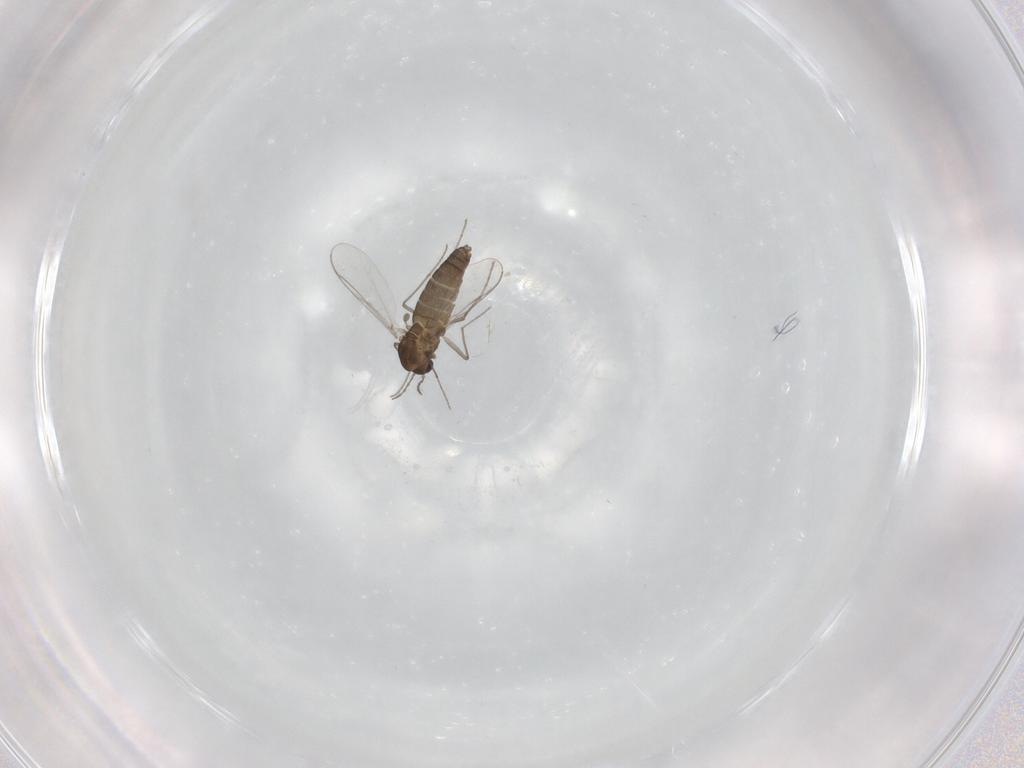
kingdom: Animalia
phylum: Arthropoda
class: Insecta
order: Diptera
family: Chironomidae
